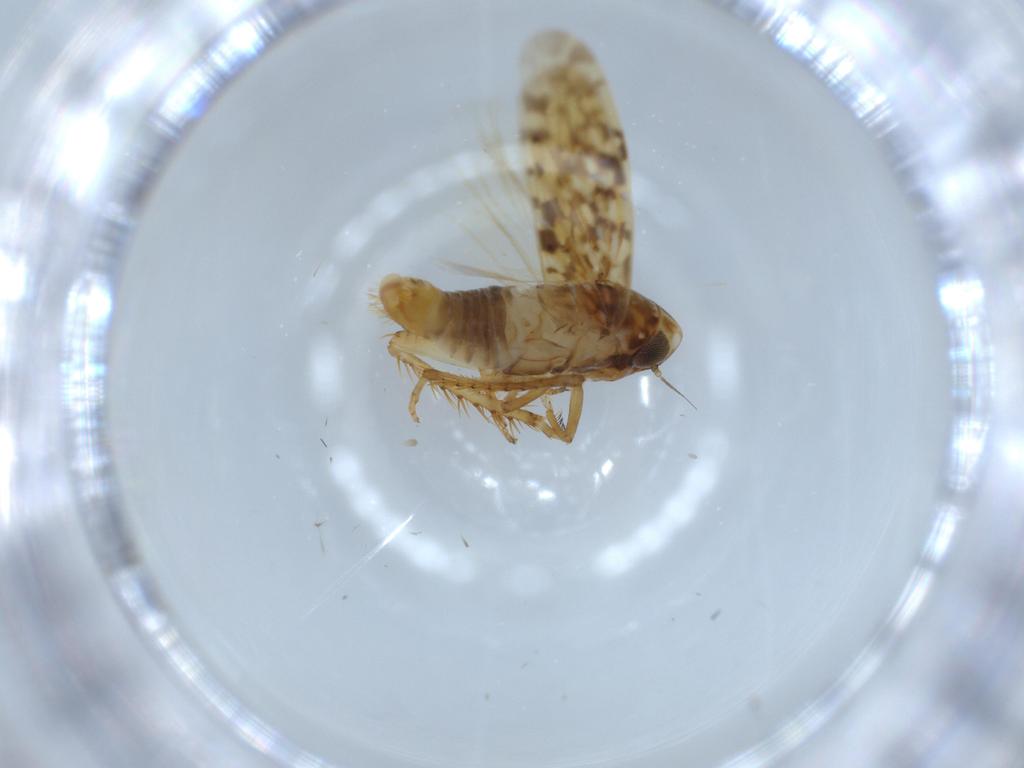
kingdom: Animalia
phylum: Arthropoda
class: Insecta
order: Hemiptera
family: Cicadellidae
